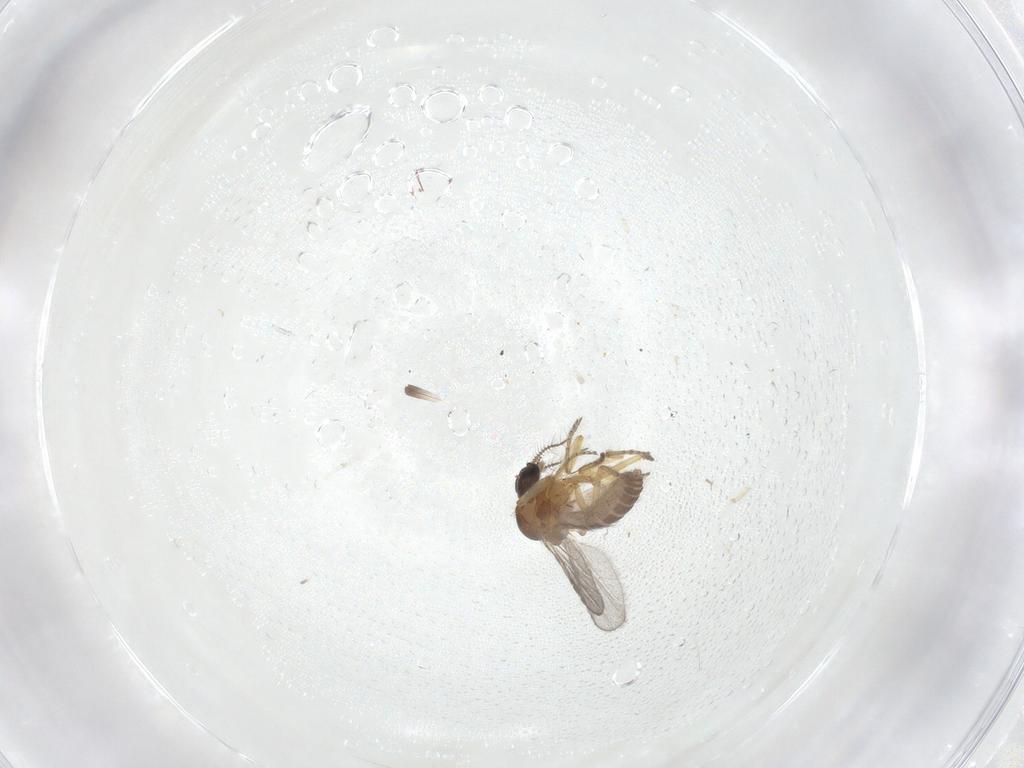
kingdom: Animalia
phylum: Arthropoda
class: Insecta
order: Diptera
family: Ceratopogonidae
